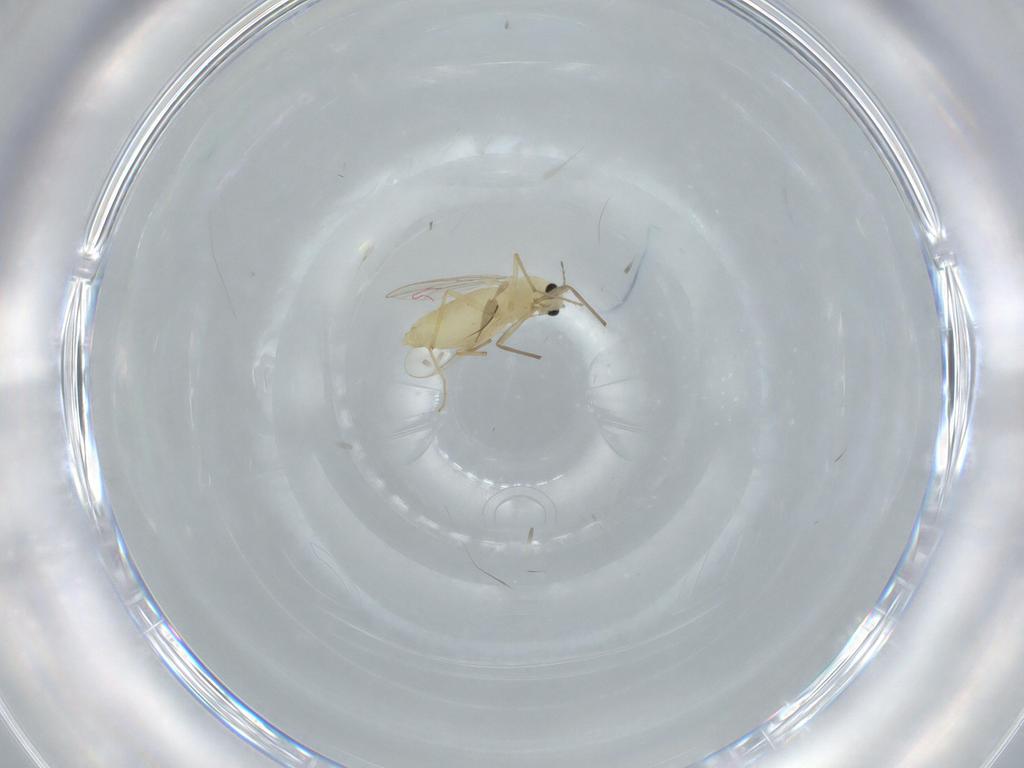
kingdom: Animalia
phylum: Arthropoda
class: Insecta
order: Diptera
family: Chironomidae
